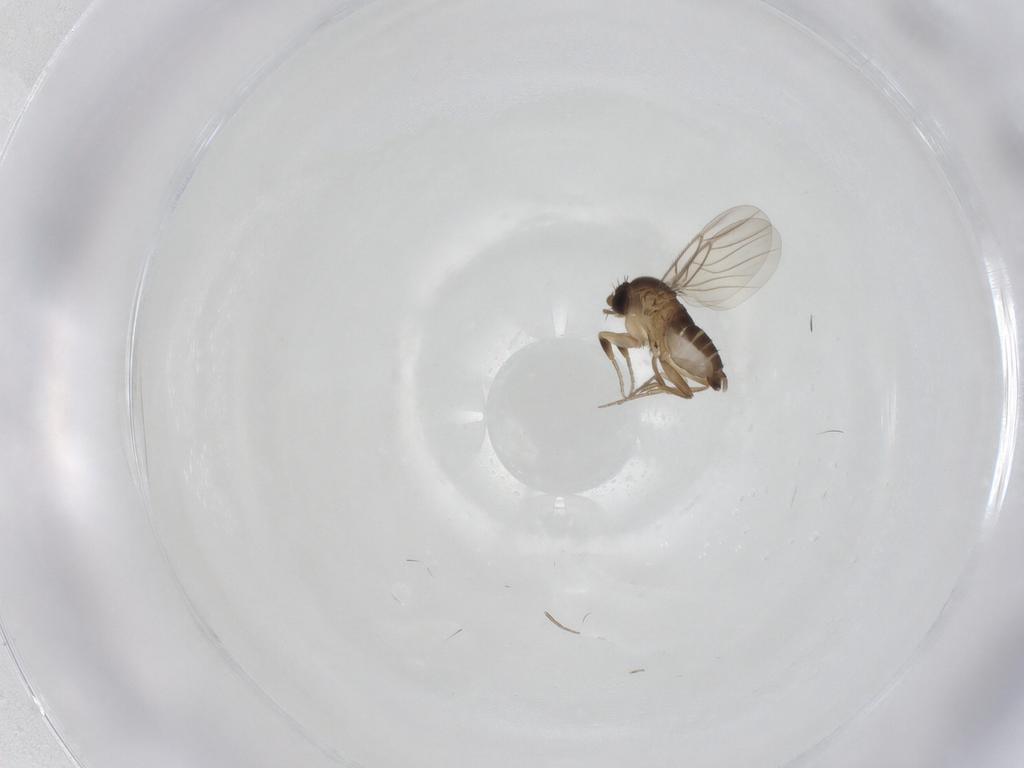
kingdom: Animalia
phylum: Arthropoda
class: Insecta
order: Diptera
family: Phoridae
